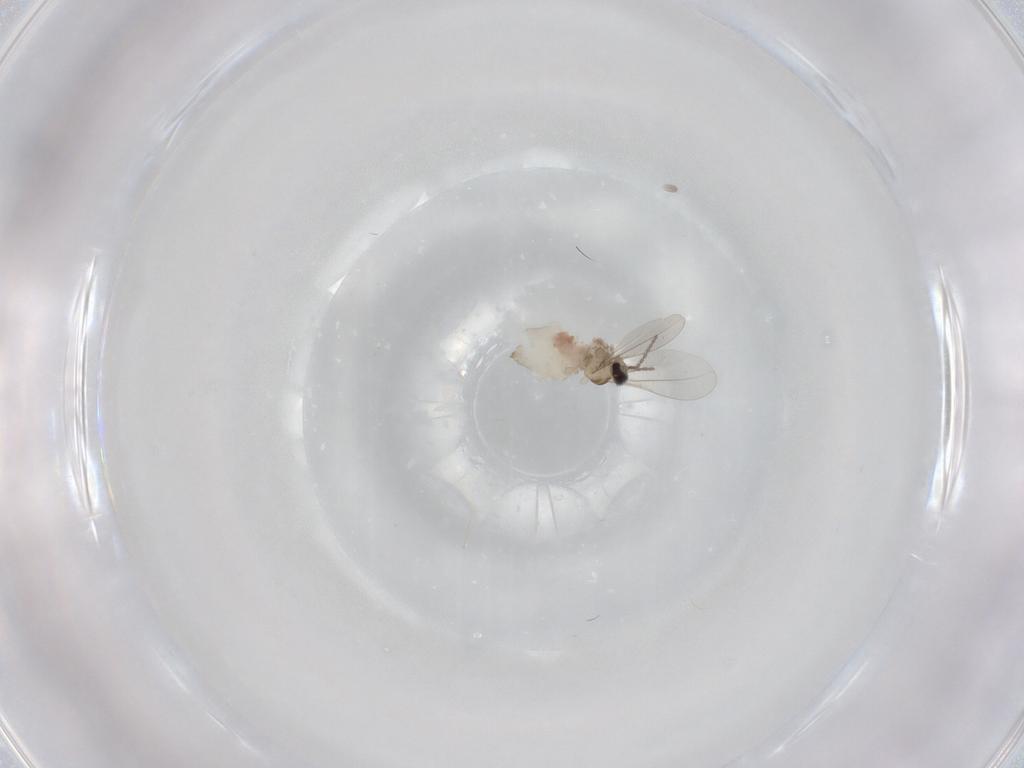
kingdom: Animalia
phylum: Arthropoda
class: Insecta
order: Diptera
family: Cecidomyiidae
